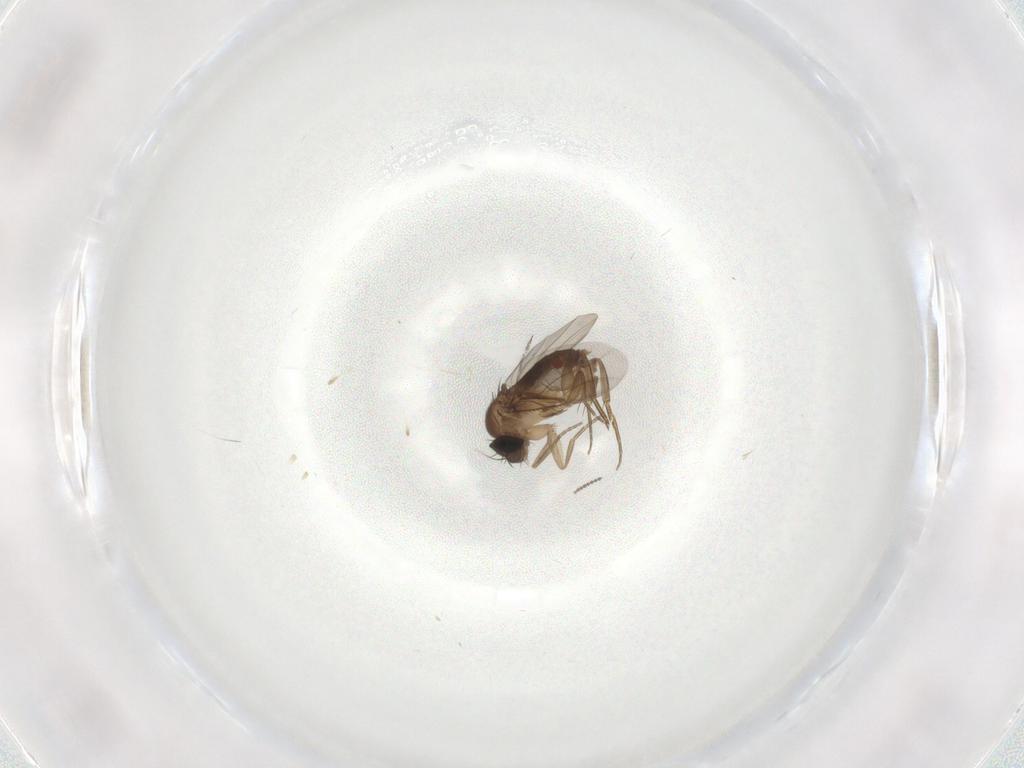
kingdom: Animalia
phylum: Arthropoda
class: Insecta
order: Diptera
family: Phoridae
